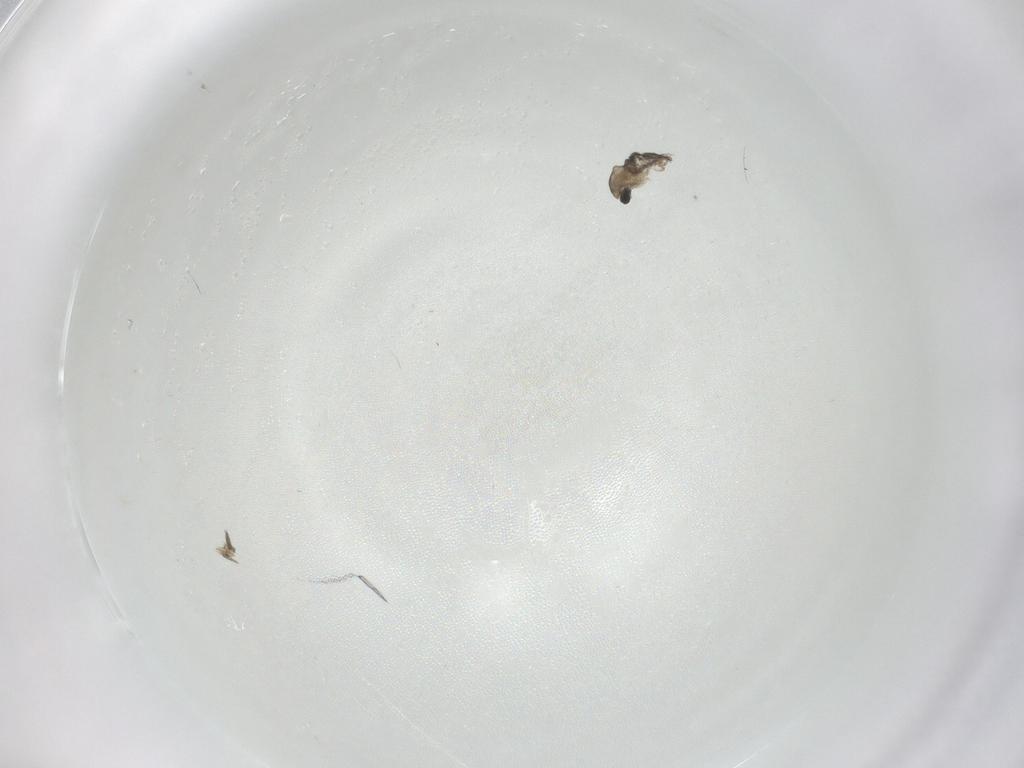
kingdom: Animalia
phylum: Arthropoda
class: Insecta
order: Diptera
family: Cecidomyiidae
